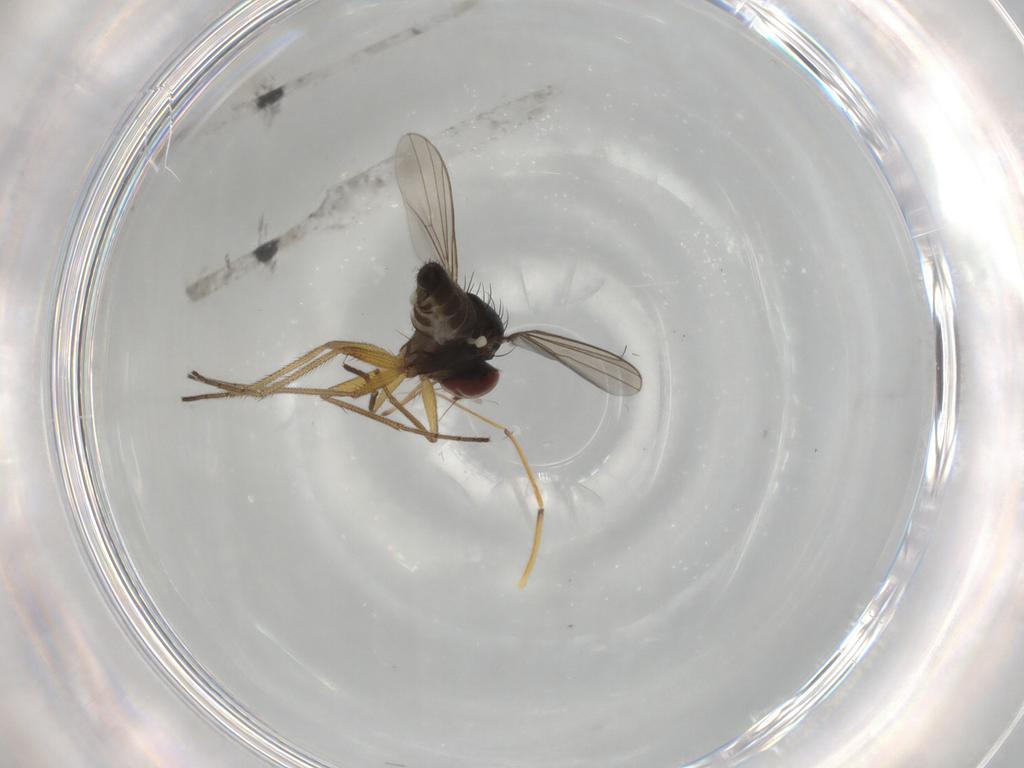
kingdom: Animalia
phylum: Arthropoda
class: Insecta
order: Diptera
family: Dolichopodidae
